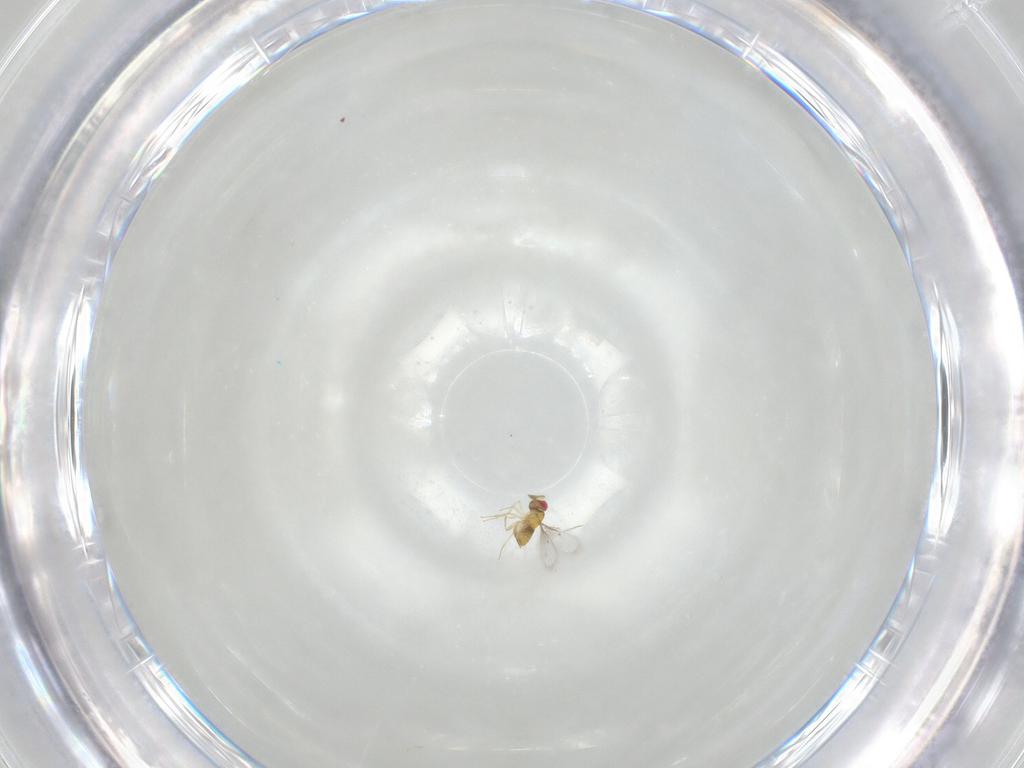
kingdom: Animalia
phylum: Arthropoda
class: Insecta
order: Hymenoptera
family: Trichogrammatidae
